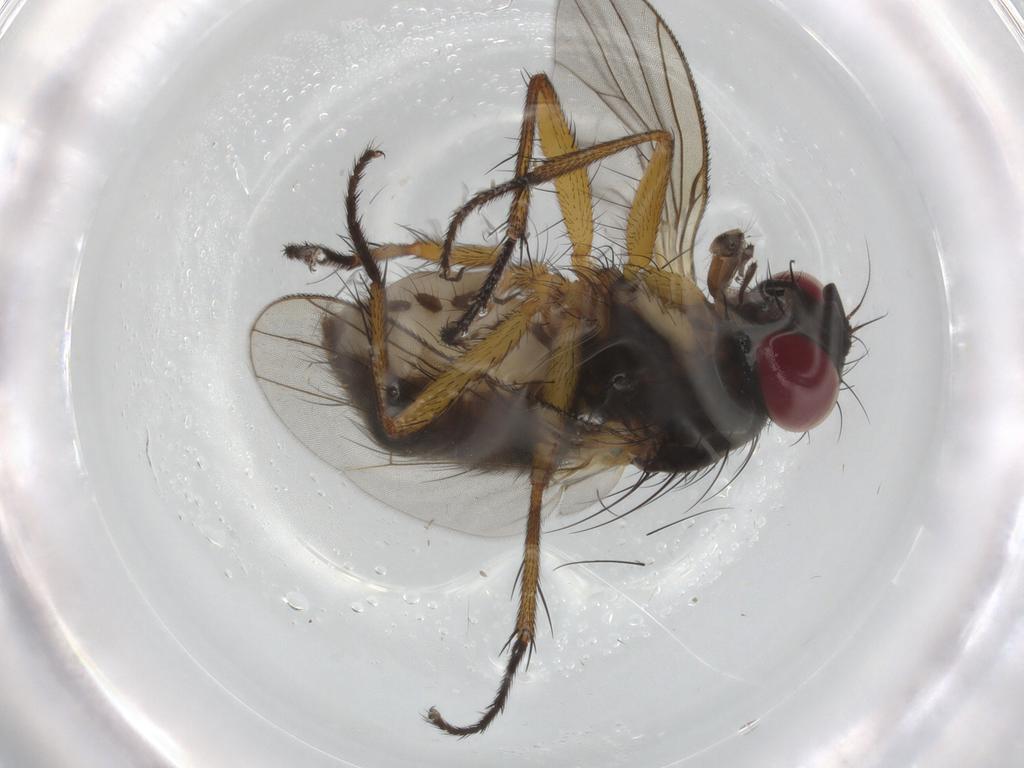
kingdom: Animalia
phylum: Arthropoda
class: Insecta
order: Diptera
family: Muscidae
